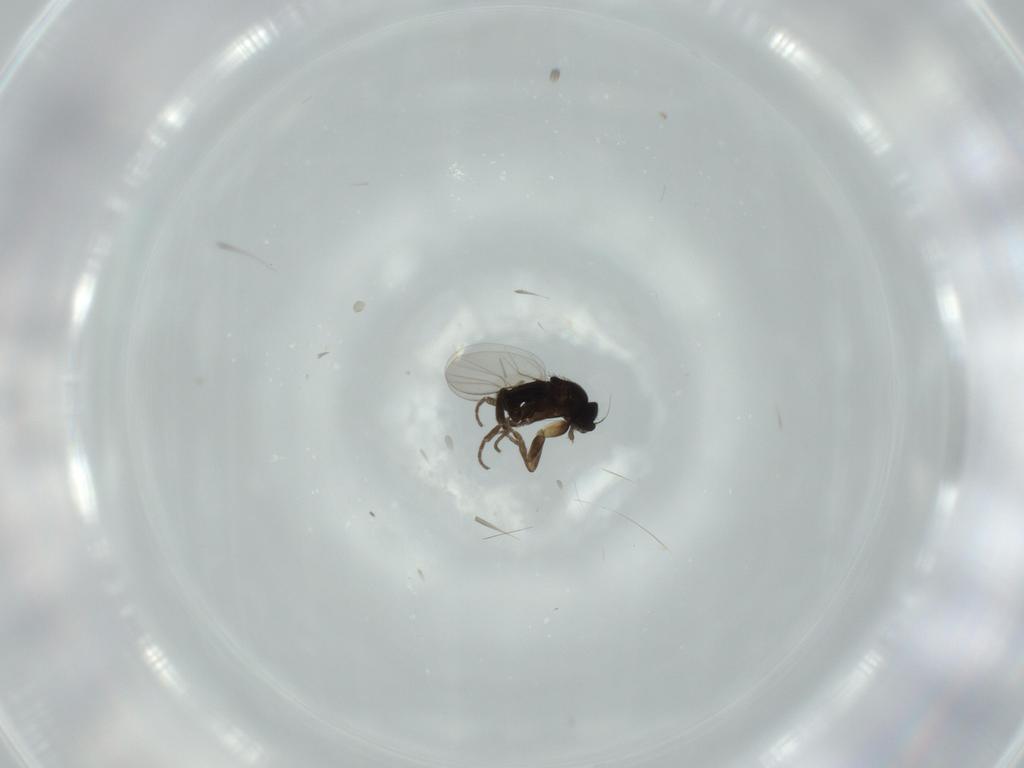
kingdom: Animalia
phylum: Arthropoda
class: Insecta
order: Diptera
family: Phoridae
